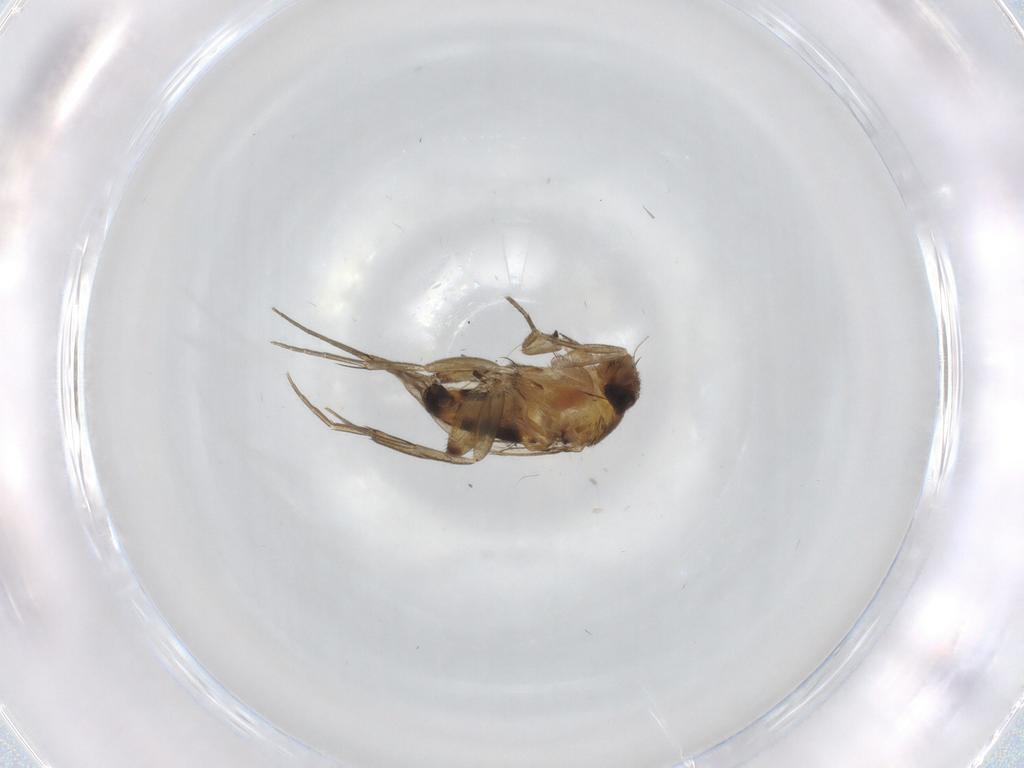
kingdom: Animalia
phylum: Arthropoda
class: Insecta
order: Diptera
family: Phoridae
